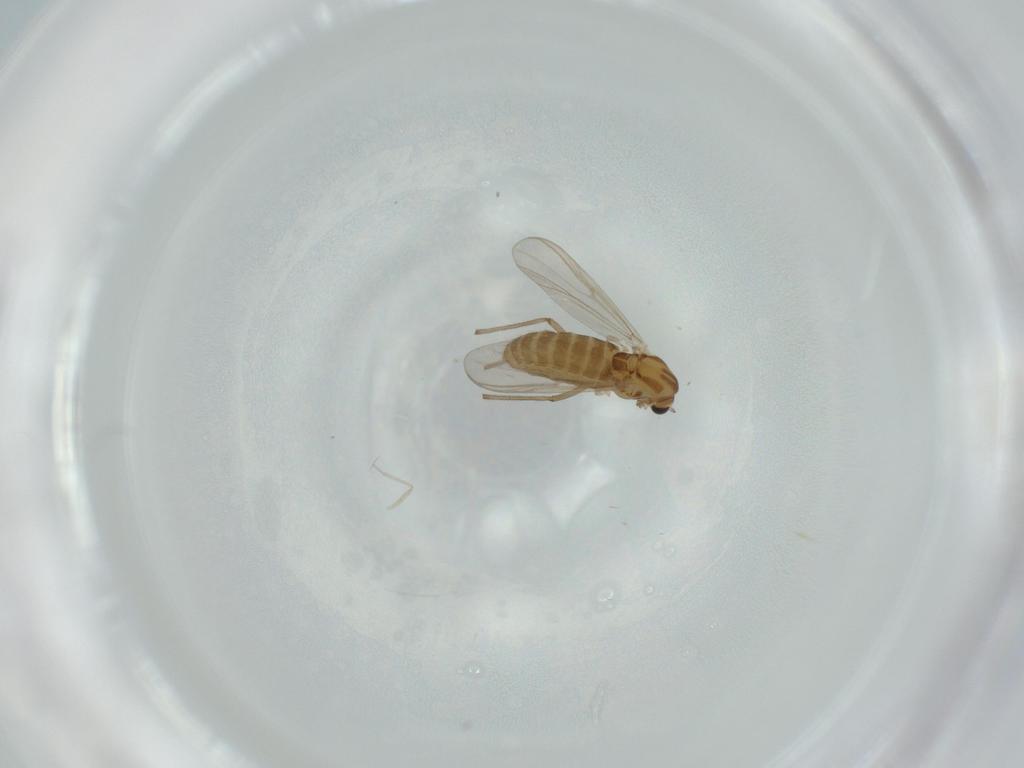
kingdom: Animalia
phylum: Arthropoda
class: Insecta
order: Diptera
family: Chironomidae
